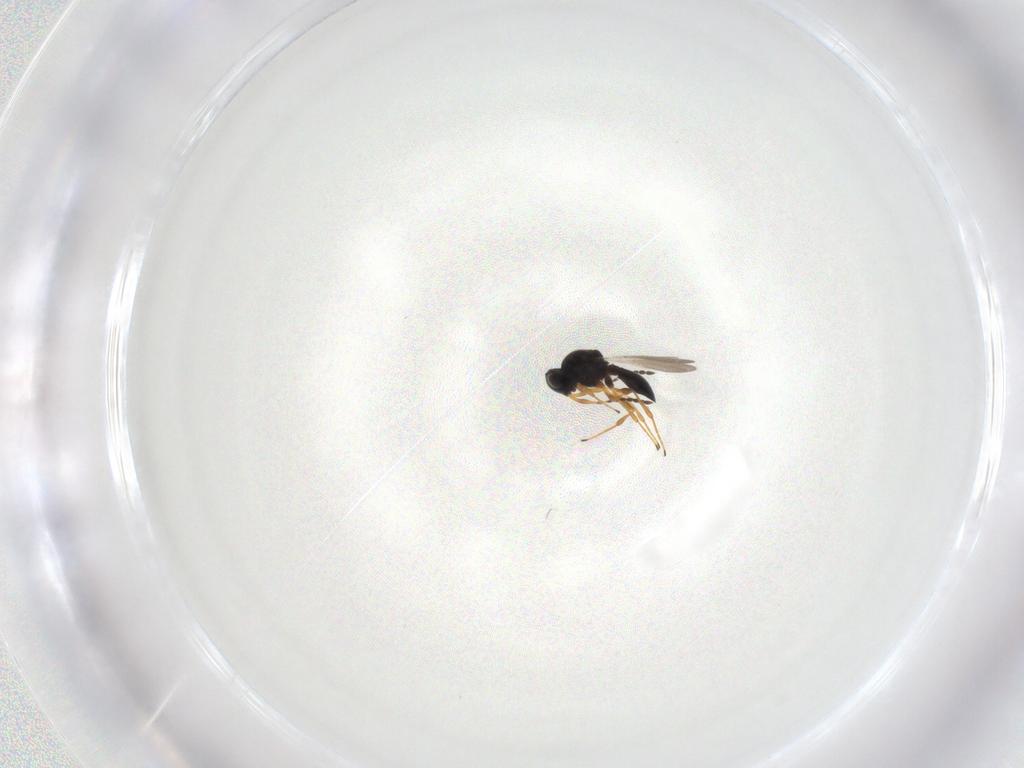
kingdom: Animalia
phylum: Arthropoda
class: Insecta
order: Hymenoptera
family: Platygastridae
